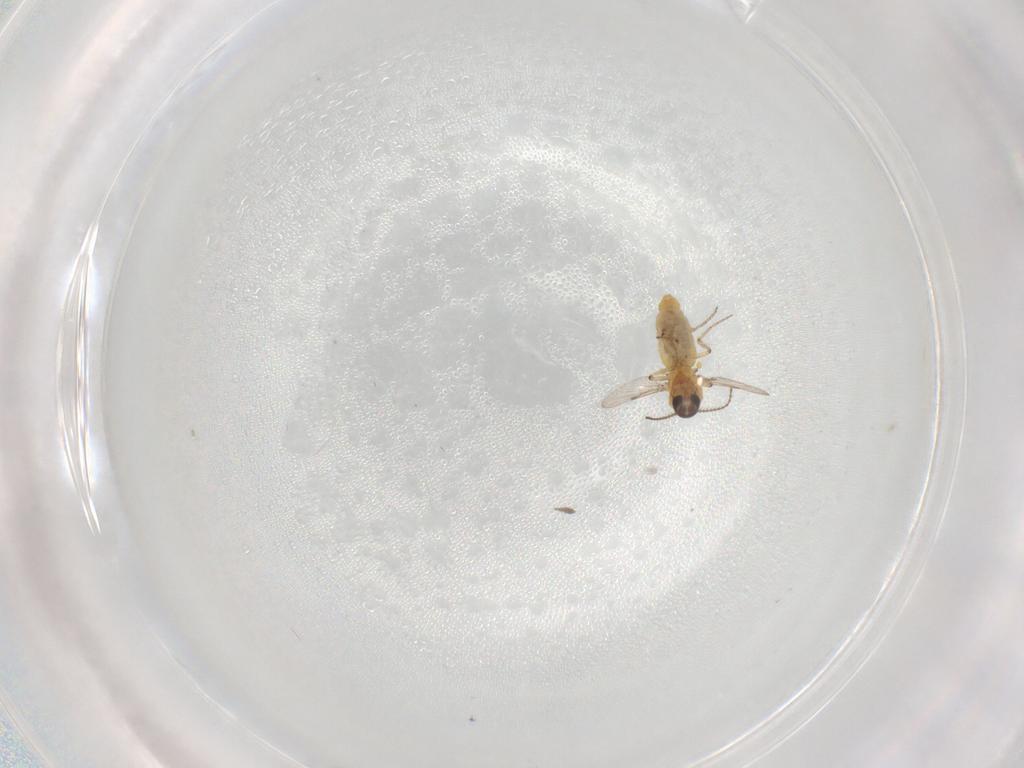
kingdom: Animalia
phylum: Arthropoda
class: Insecta
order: Diptera
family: Ceratopogonidae
